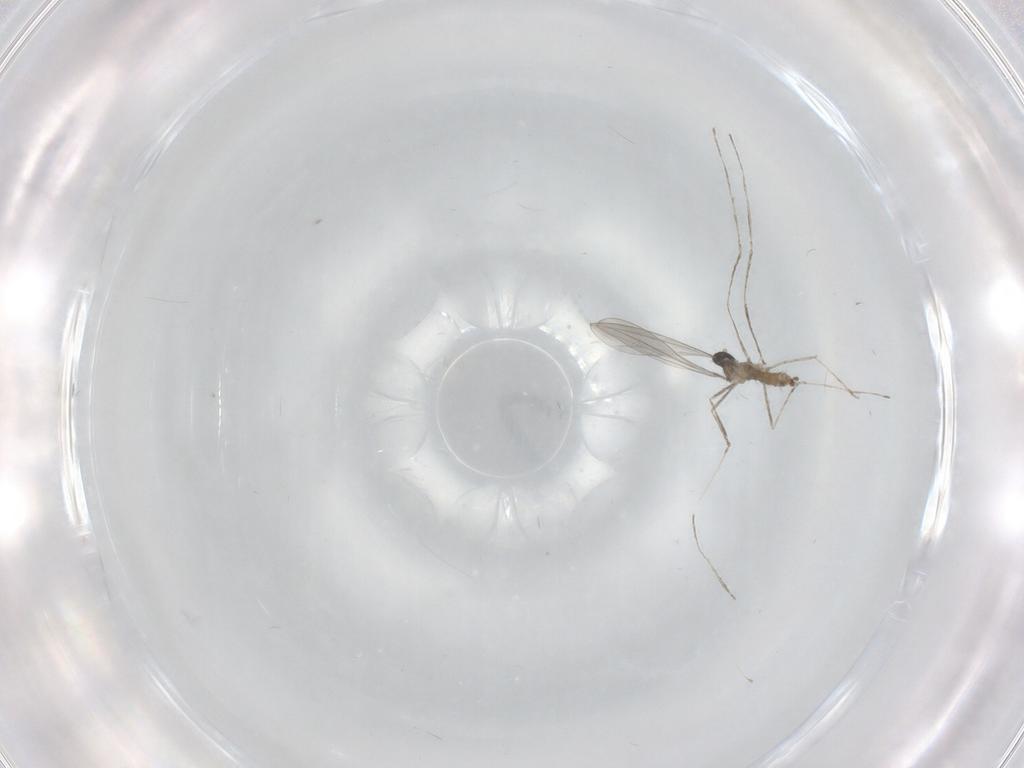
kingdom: Animalia
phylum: Arthropoda
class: Insecta
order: Diptera
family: Cecidomyiidae
